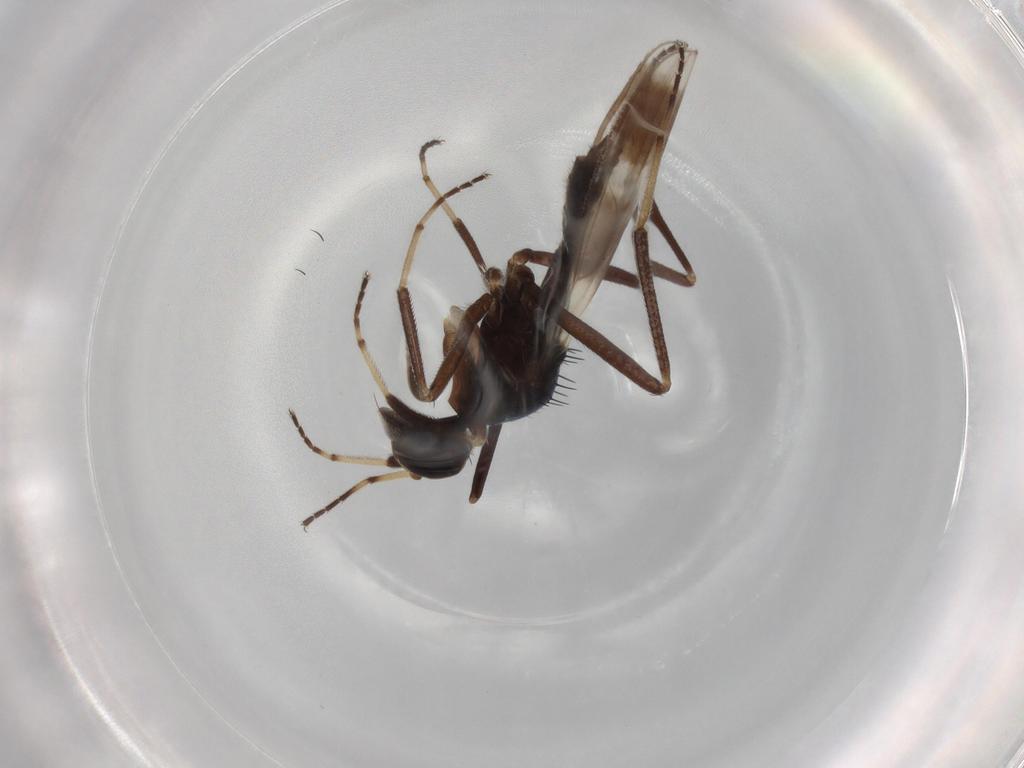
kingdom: Animalia
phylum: Arthropoda
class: Insecta
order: Diptera
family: Hybotidae
